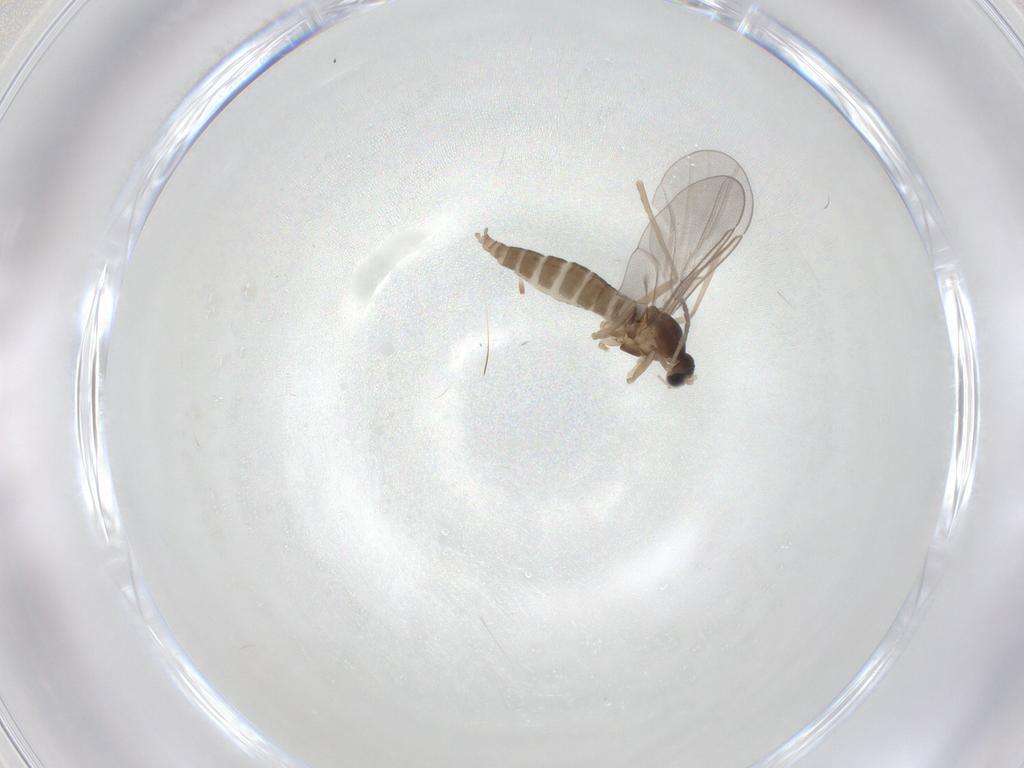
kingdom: Animalia
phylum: Arthropoda
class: Insecta
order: Diptera
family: Cecidomyiidae
